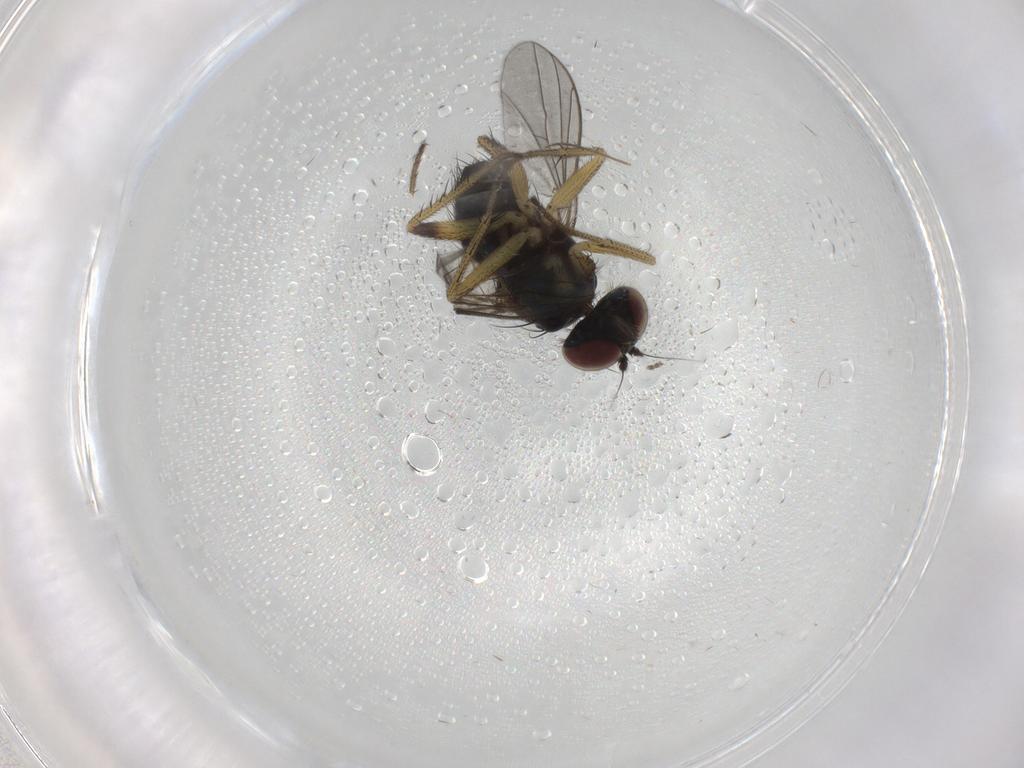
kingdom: Animalia
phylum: Arthropoda
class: Insecta
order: Diptera
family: Dolichopodidae
